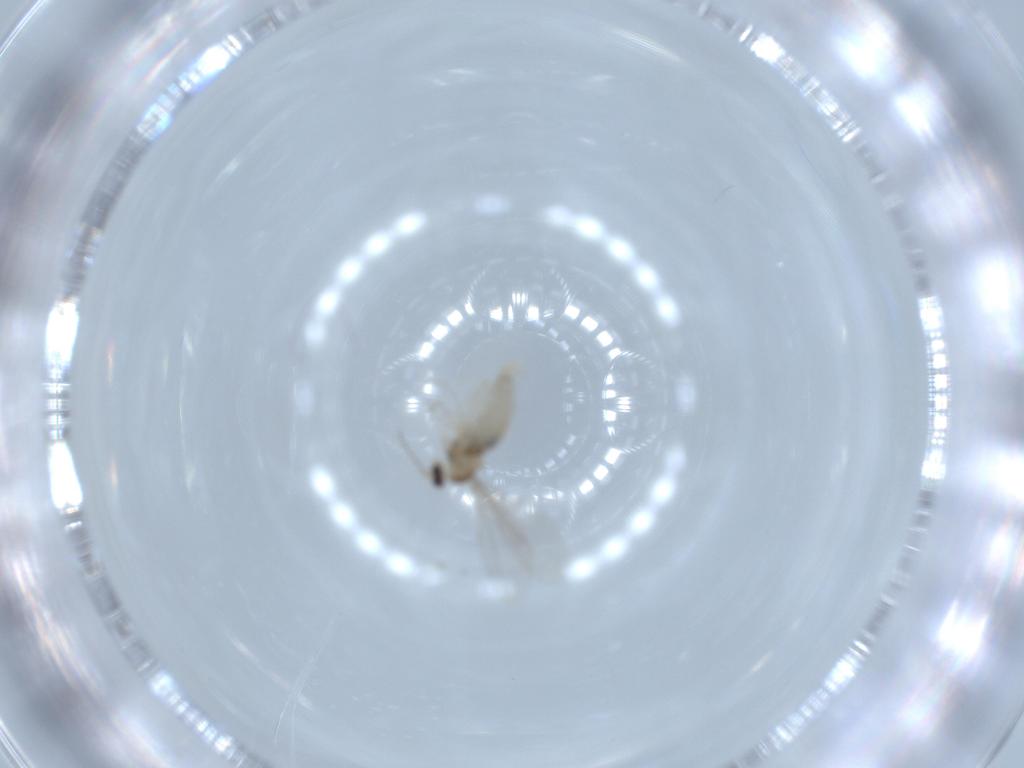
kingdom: Animalia
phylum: Arthropoda
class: Insecta
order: Diptera
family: Cecidomyiidae
